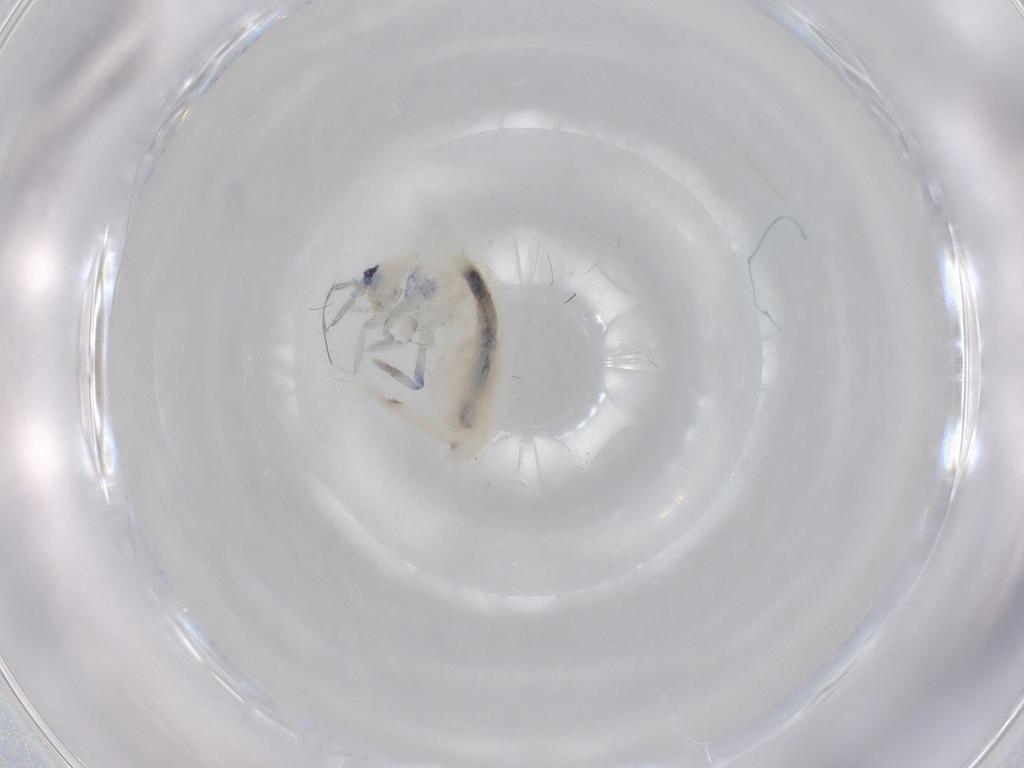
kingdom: Animalia
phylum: Arthropoda
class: Collembola
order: Entomobryomorpha
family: Tomoceridae
